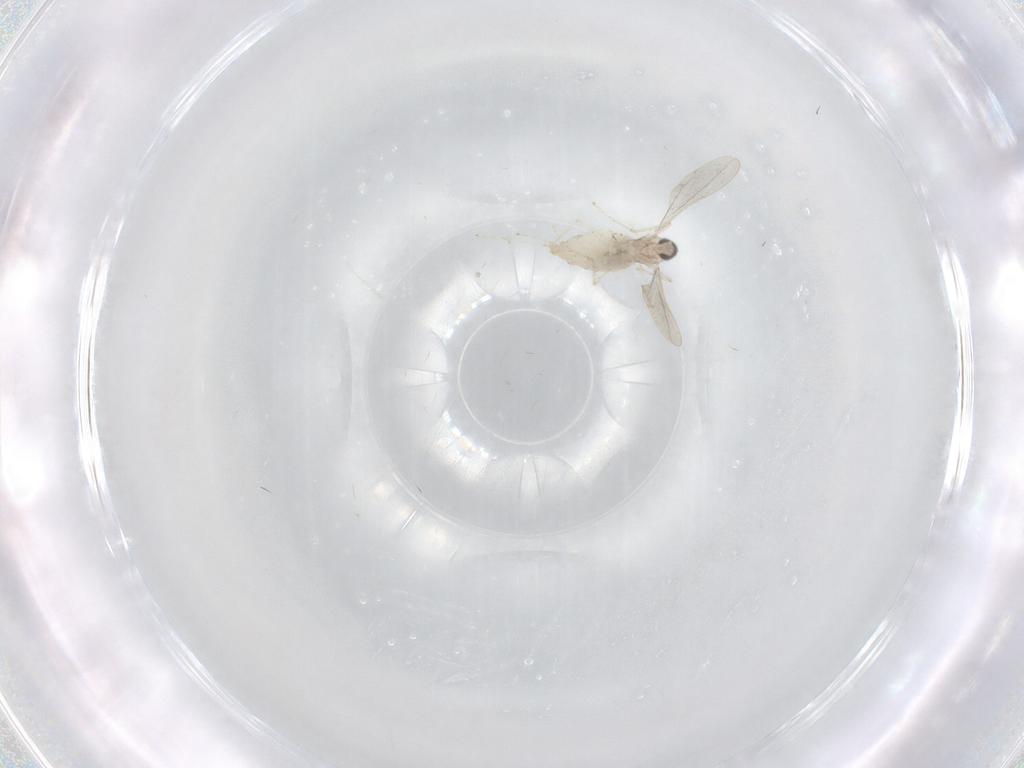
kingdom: Animalia
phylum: Arthropoda
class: Insecta
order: Diptera
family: Cecidomyiidae
